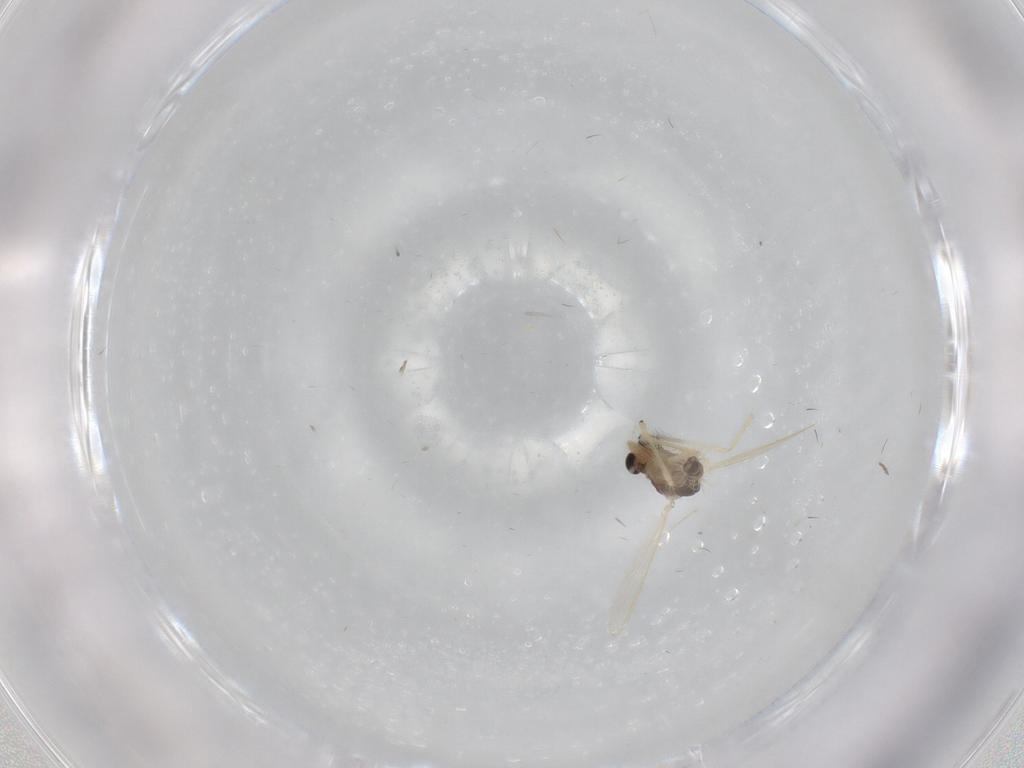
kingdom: Animalia
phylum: Arthropoda
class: Insecta
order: Diptera
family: Chironomidae
